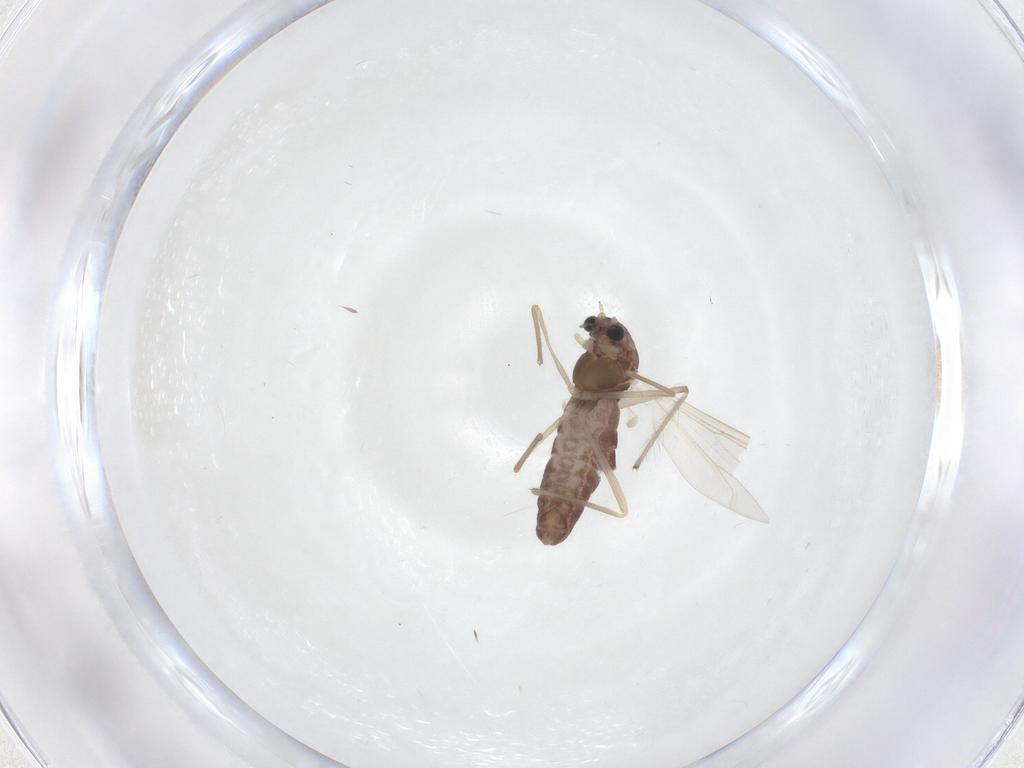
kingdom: Animalia
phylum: Arthropoda
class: Insecta
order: Diptera
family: Chironomidae
